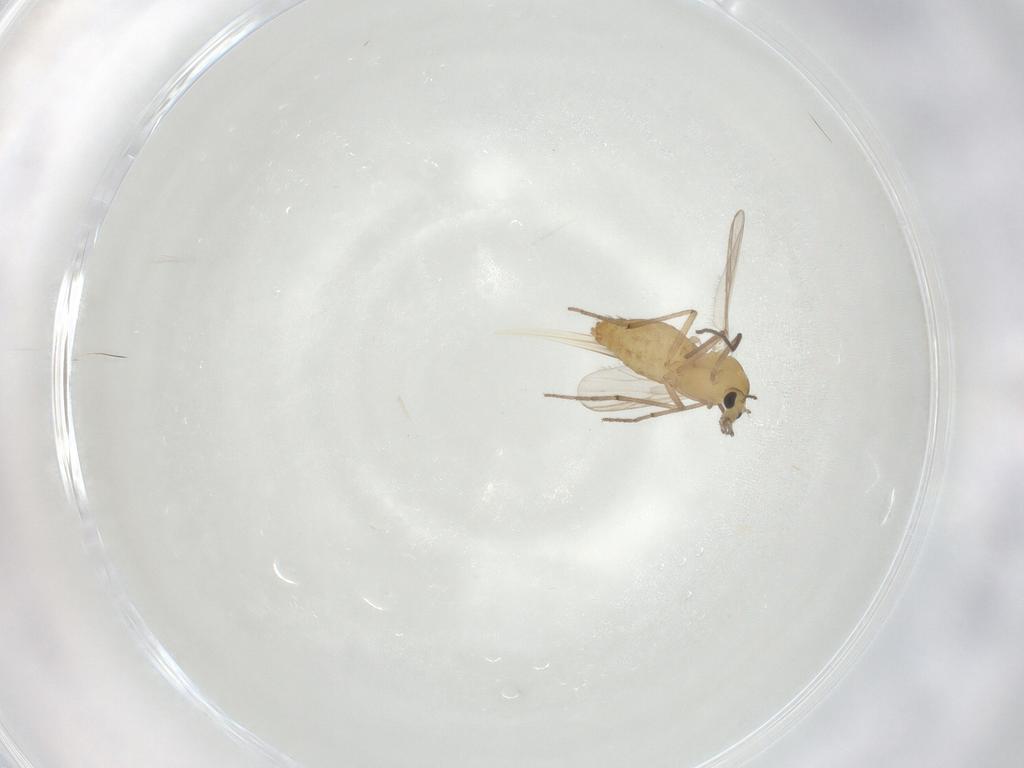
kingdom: Animalia
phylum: Arthropoda
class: Insecta
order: Diptera
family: Chironomidae
